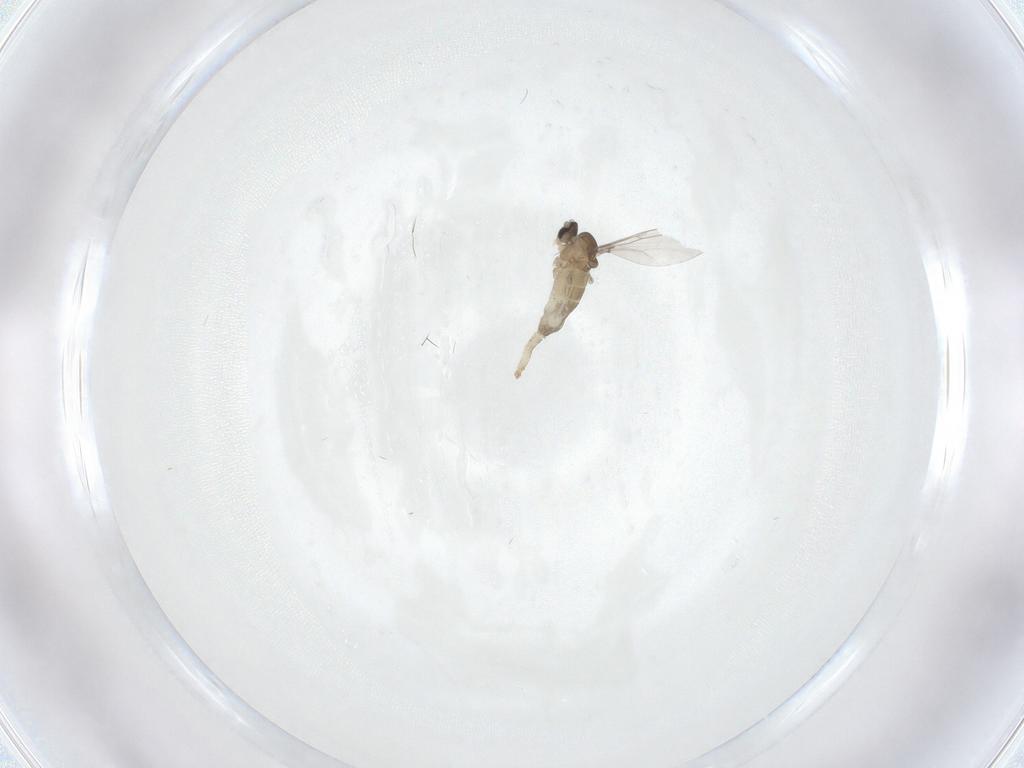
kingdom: Animalia
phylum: Arthropoda
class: Insecta
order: Diptera
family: Cecidomyiidae
